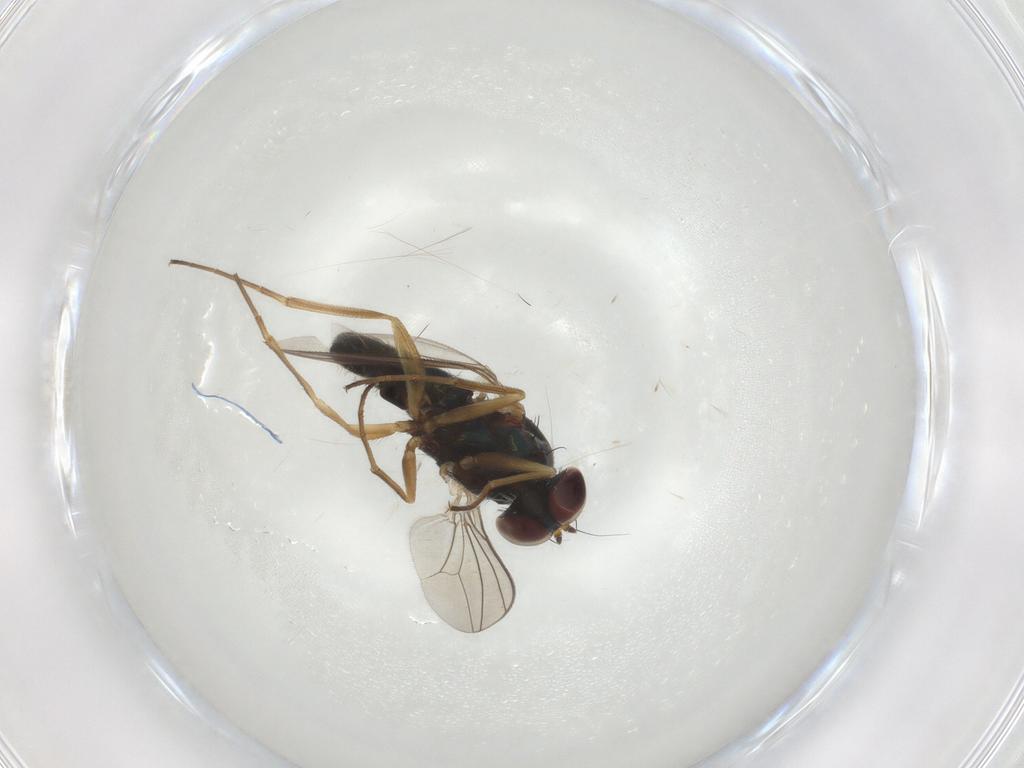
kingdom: Animalia
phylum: Arthropoda
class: Insecta
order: Diptera
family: Dolichopodidae
